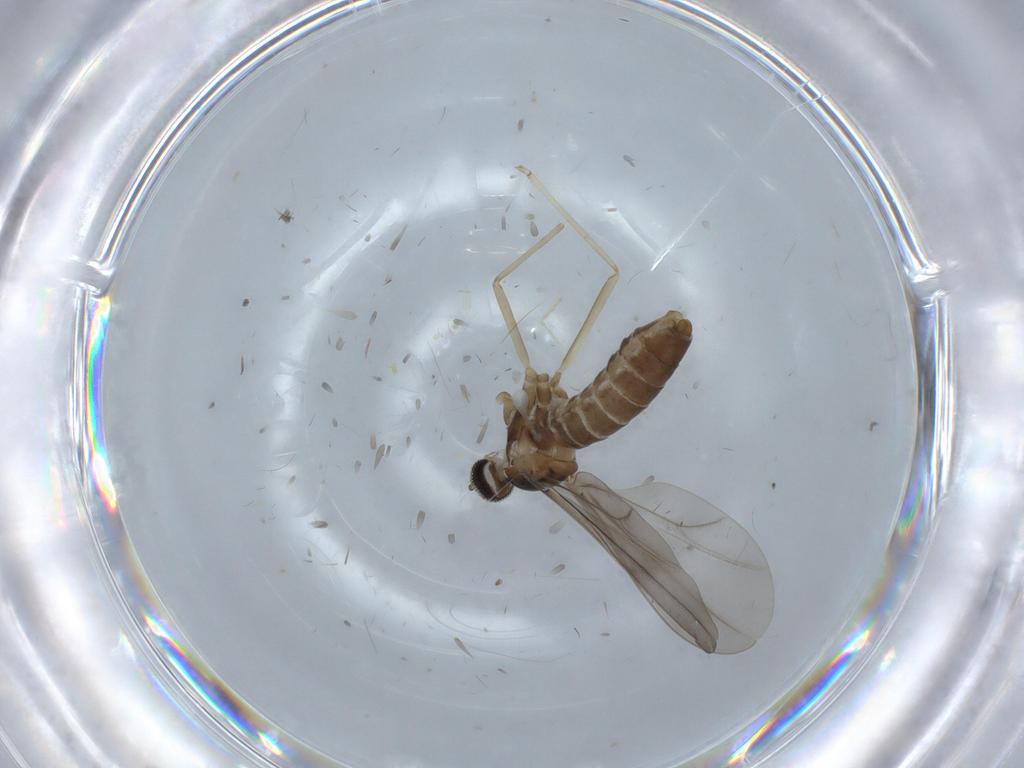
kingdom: Animalia
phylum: Arthropoda
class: Insecta
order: Diptera
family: Chironomidae
